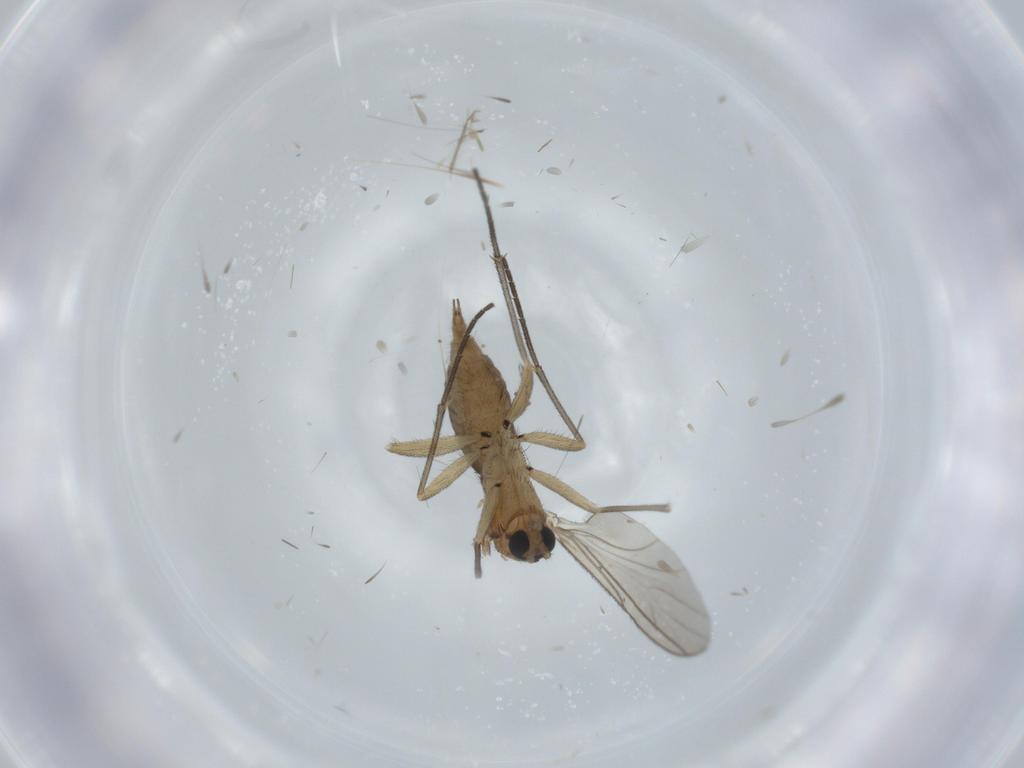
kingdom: Animalia
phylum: Arthropoda
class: Insecta
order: Diptera
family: Sciaridae
